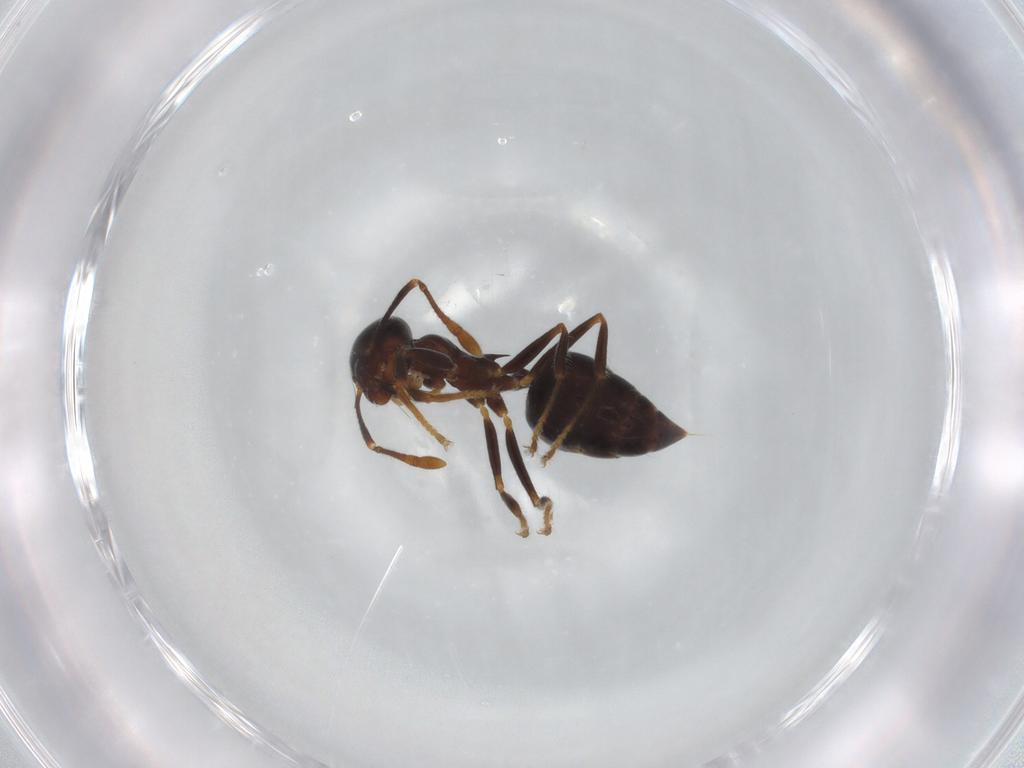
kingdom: Animalia
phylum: Arthropoda
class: Insecta
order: Hymenoptera
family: Formicidae
